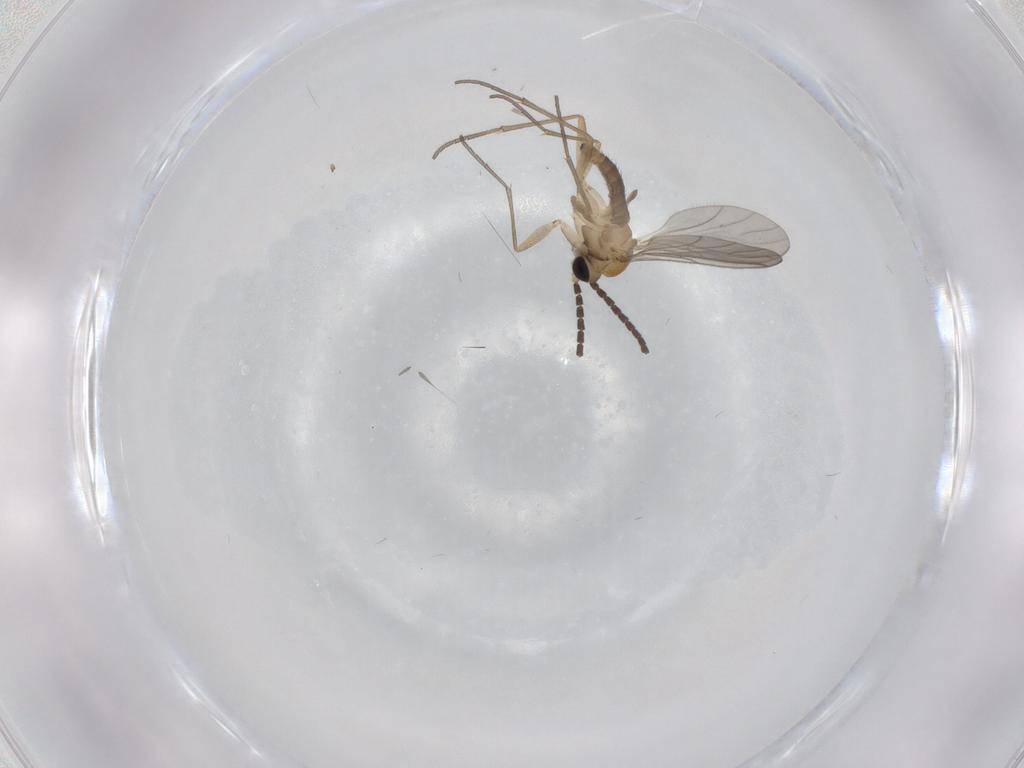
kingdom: Animalia
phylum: Arthropoda
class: Insecta
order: Diptera
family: Sciaridae
